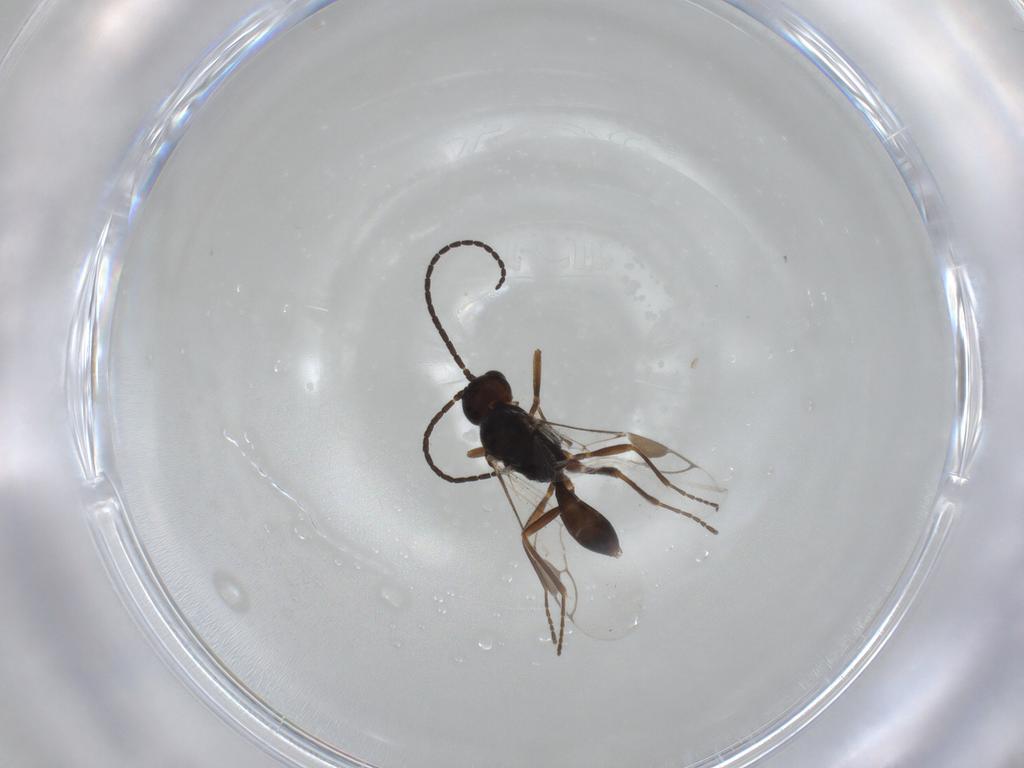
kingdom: Animalia
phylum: Arthropoda
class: Insecta
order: Hymenoptera
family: Braconidae
